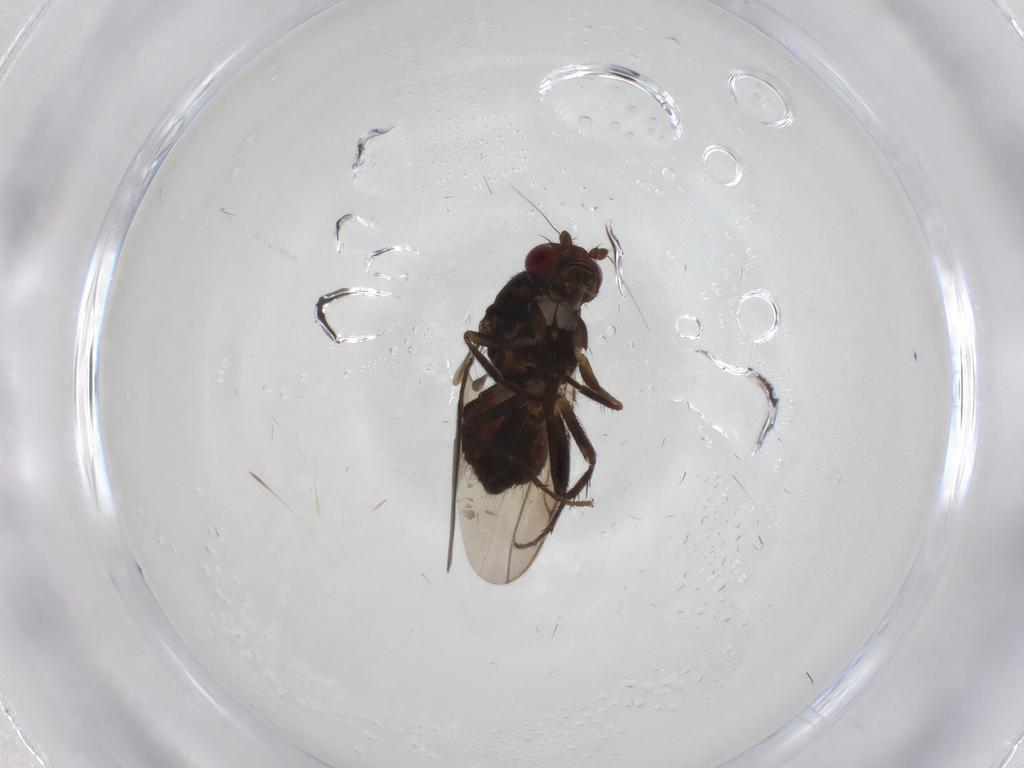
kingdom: Animalia
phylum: Arthropoda
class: Insecta
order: Diptera
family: Sphaeroceridae
